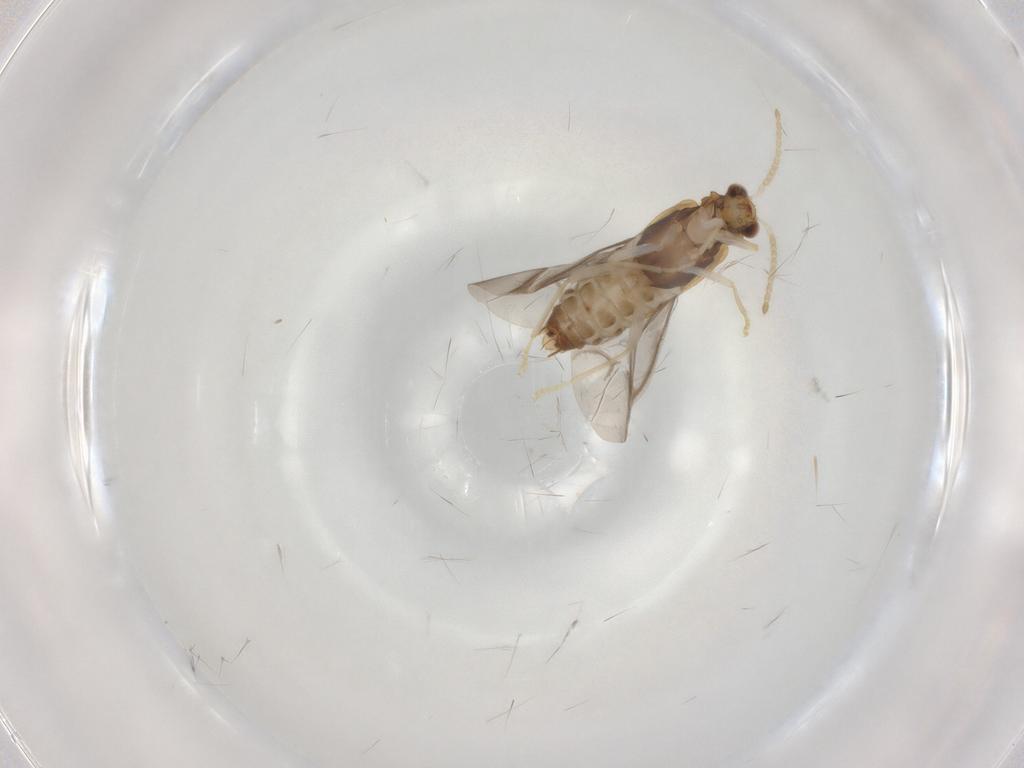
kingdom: Animalia
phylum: Arthropoda
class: Insecta
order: Coleoptera
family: Cantharidae
